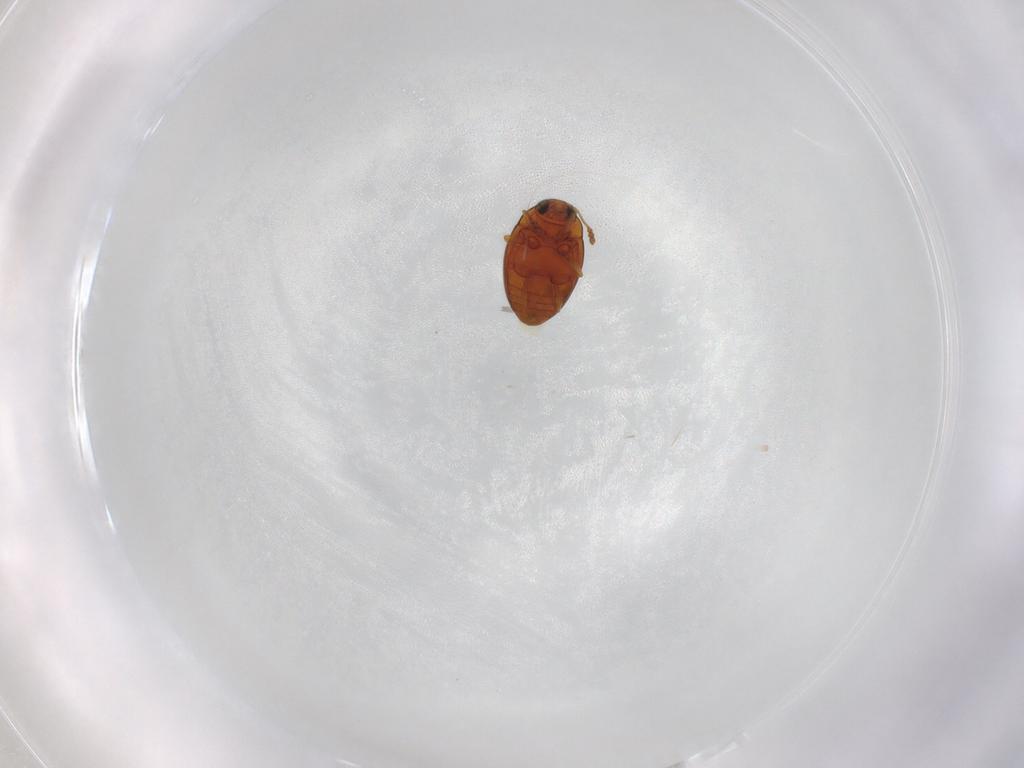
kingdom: Animalia
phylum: Arthropoda
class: Insecta
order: Coleoptera
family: Cryptophagidae
